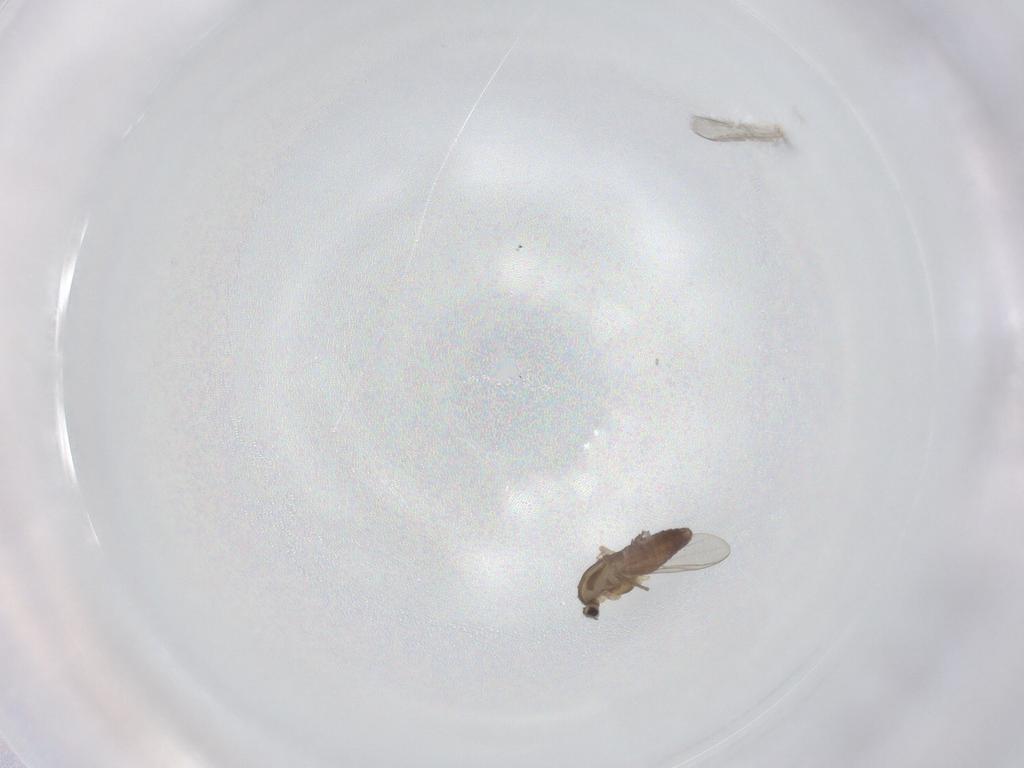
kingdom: Animalia
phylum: Arthropoda
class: Insecta
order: Diptera
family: Chironomidae
